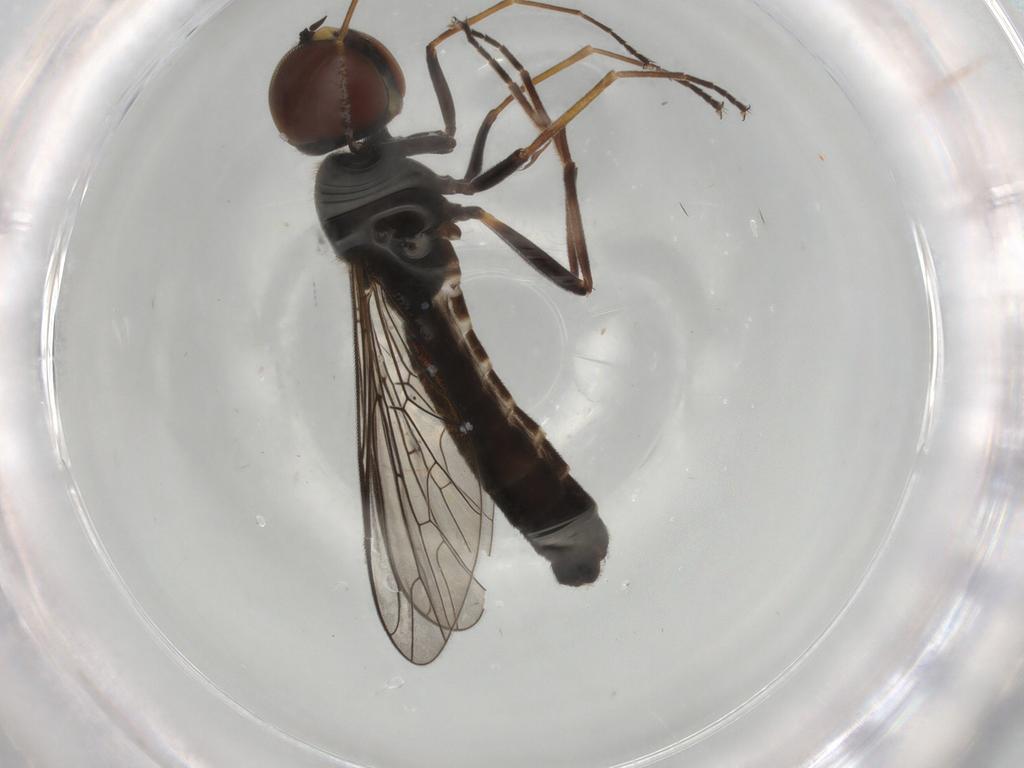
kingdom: Animalia
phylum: Arthropoda
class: Insecta
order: Diptera
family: Bombyliidae
